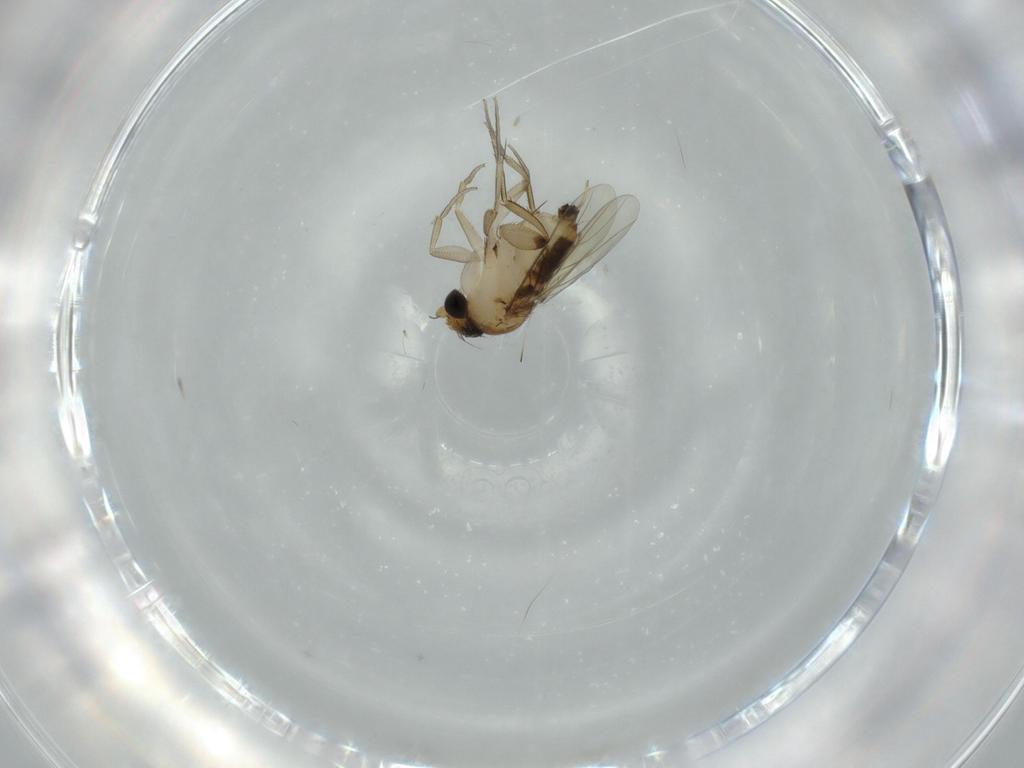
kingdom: Animalia
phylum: Arthropoda
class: Insecta
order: Diptera
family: Phoridae
